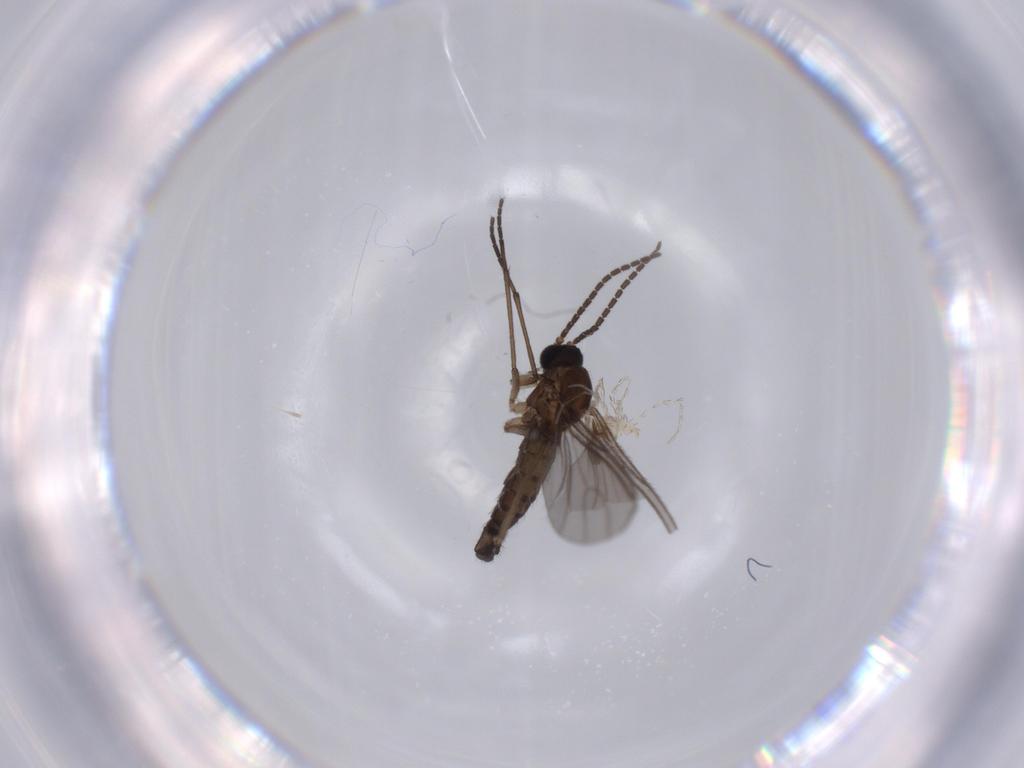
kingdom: Animalia
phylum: Arthropoda
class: Insecta
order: Diptera
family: Sciaridae
